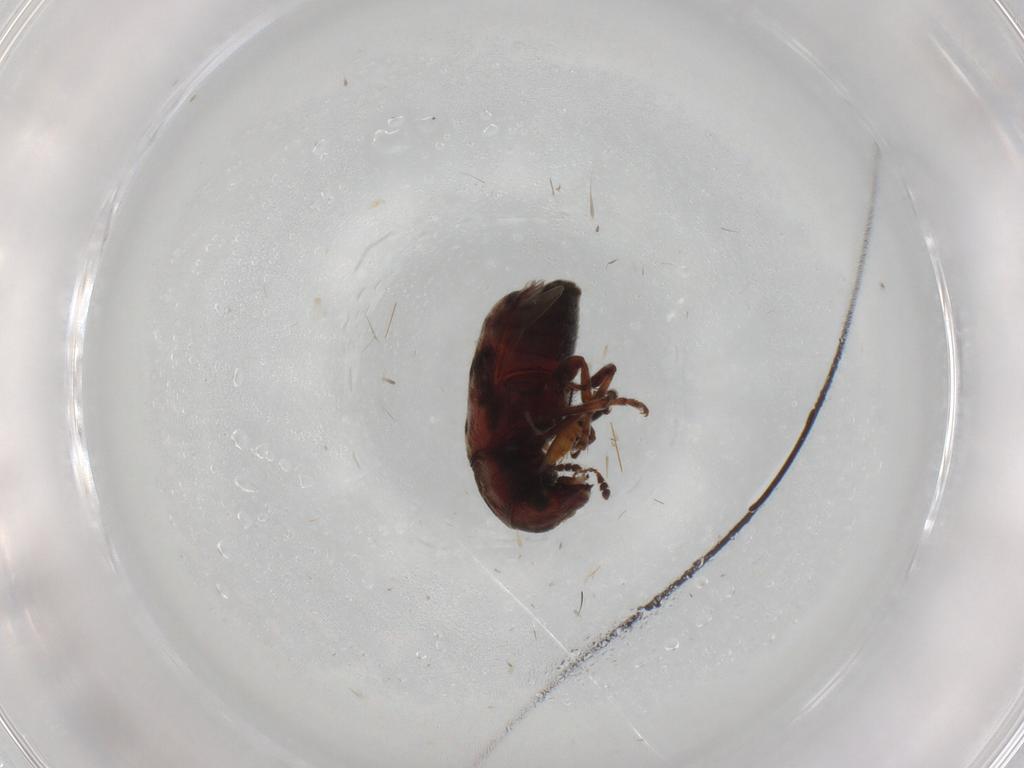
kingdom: Animalia
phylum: Arthropoda
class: Insecta
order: Coleoptera
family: Anthribidae
